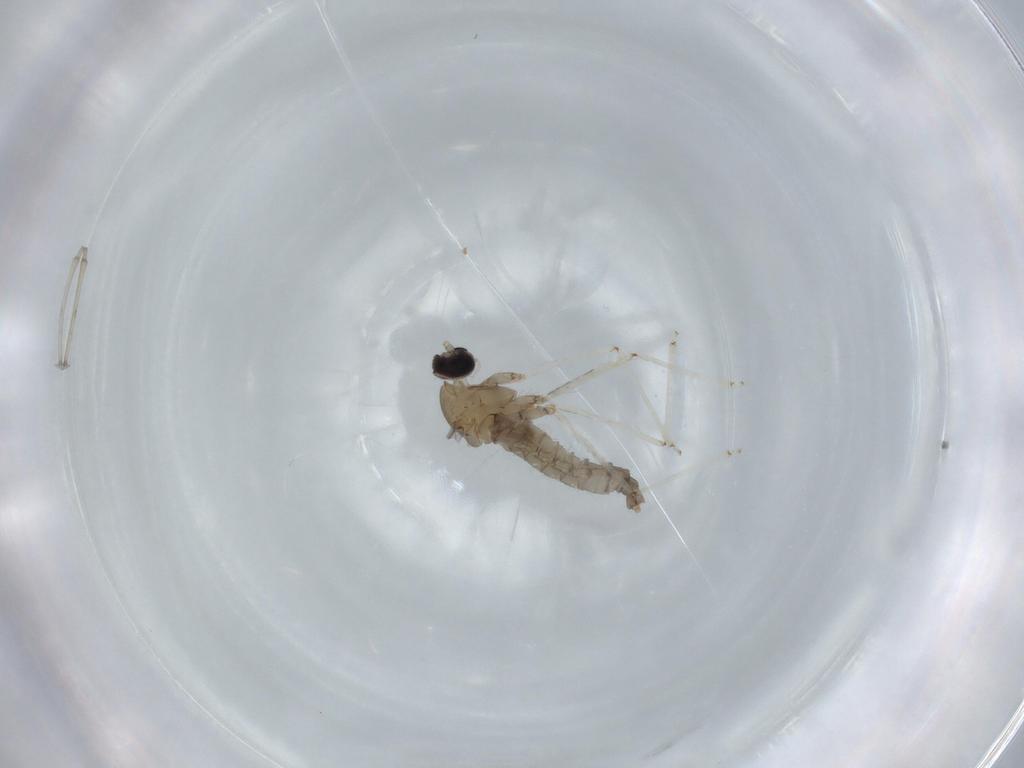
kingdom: Animalia
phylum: Arthropoda
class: Insecta
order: Diptera
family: Cecidomyiidae
